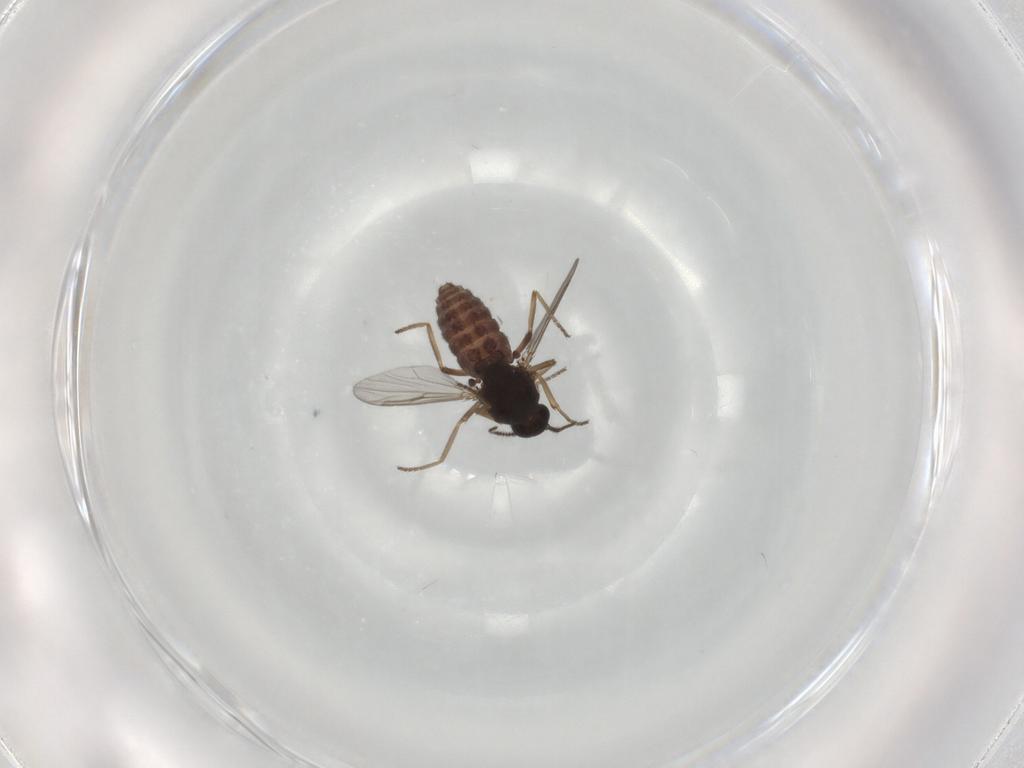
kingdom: Animalia
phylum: Arthropoda
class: Insecta
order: Diptera
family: Ceratopogonidae
